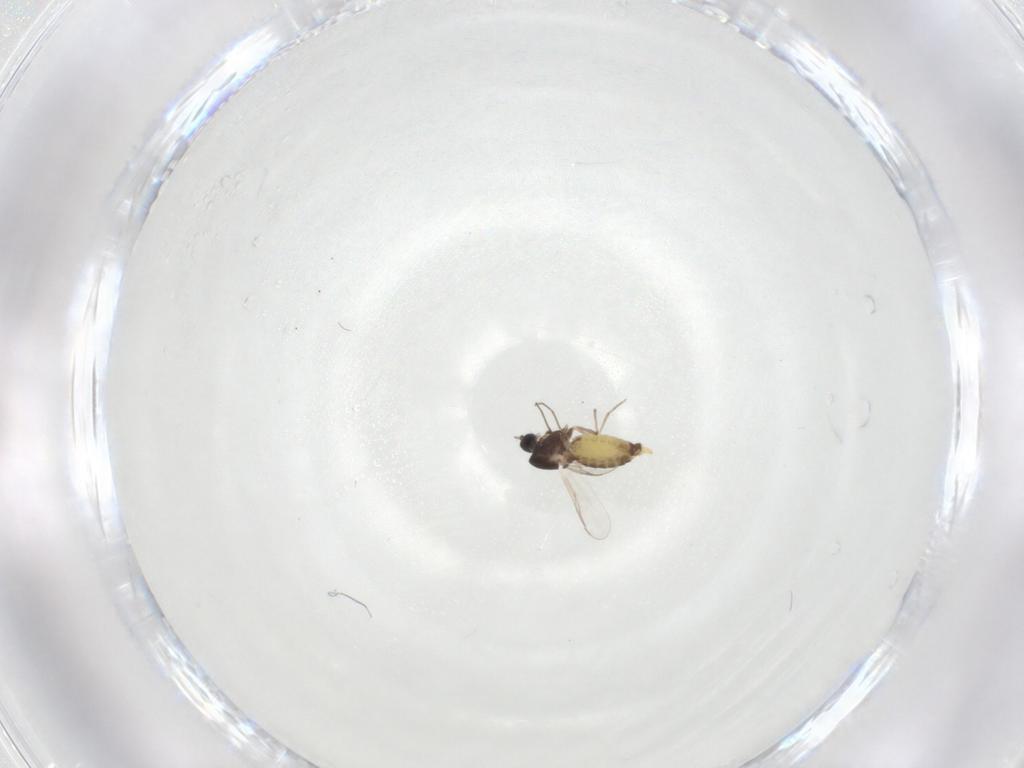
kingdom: Animalia
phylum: Arthropoda
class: Insecta
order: Diptera
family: Chironomidae
